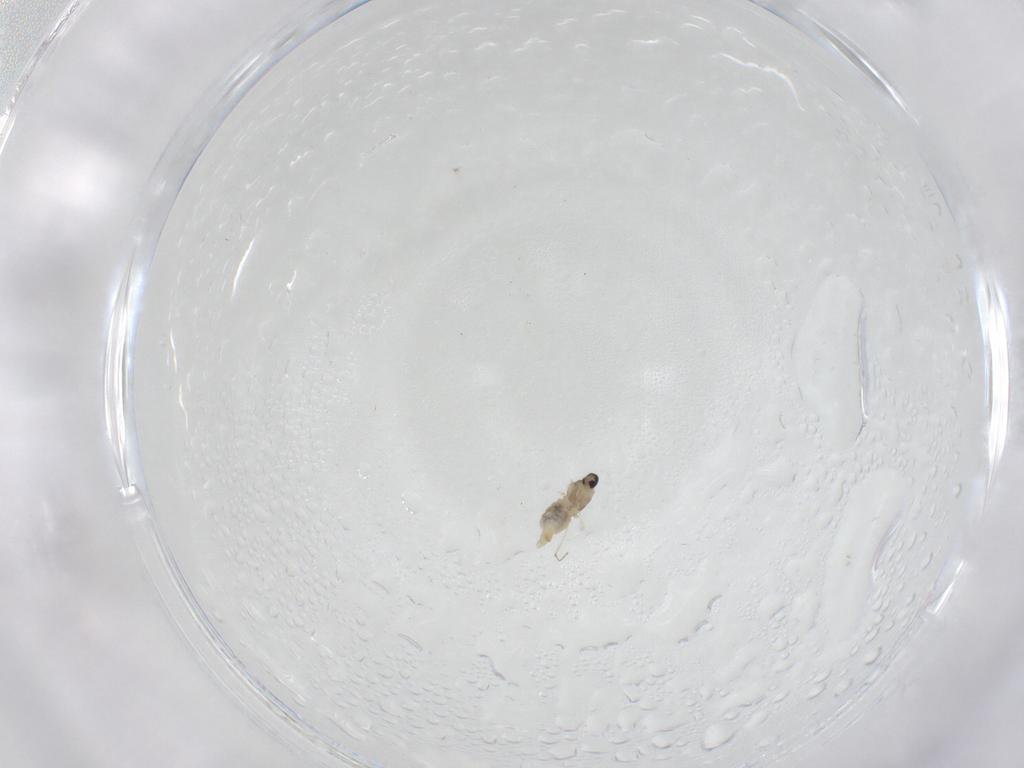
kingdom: Animalia
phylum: Arthropoda
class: Insecta
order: Diptera
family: Cecidomyiidae
